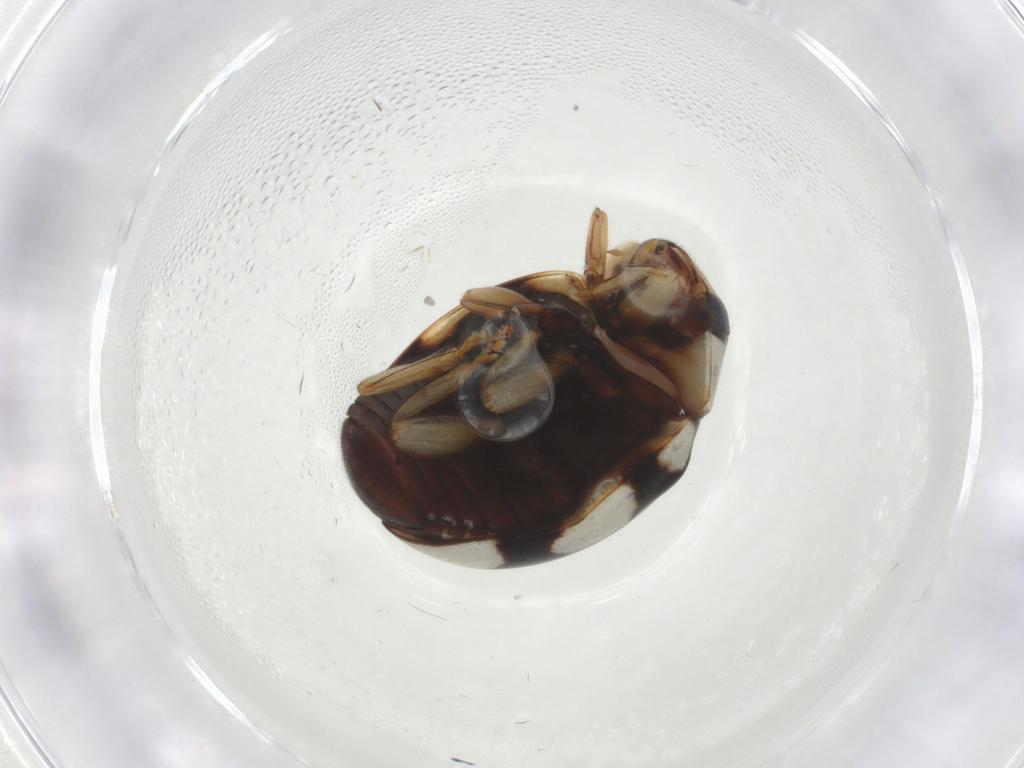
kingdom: Animalia
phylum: Arthropoda
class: Insecta
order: Coleoptera
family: Coccinellidae
